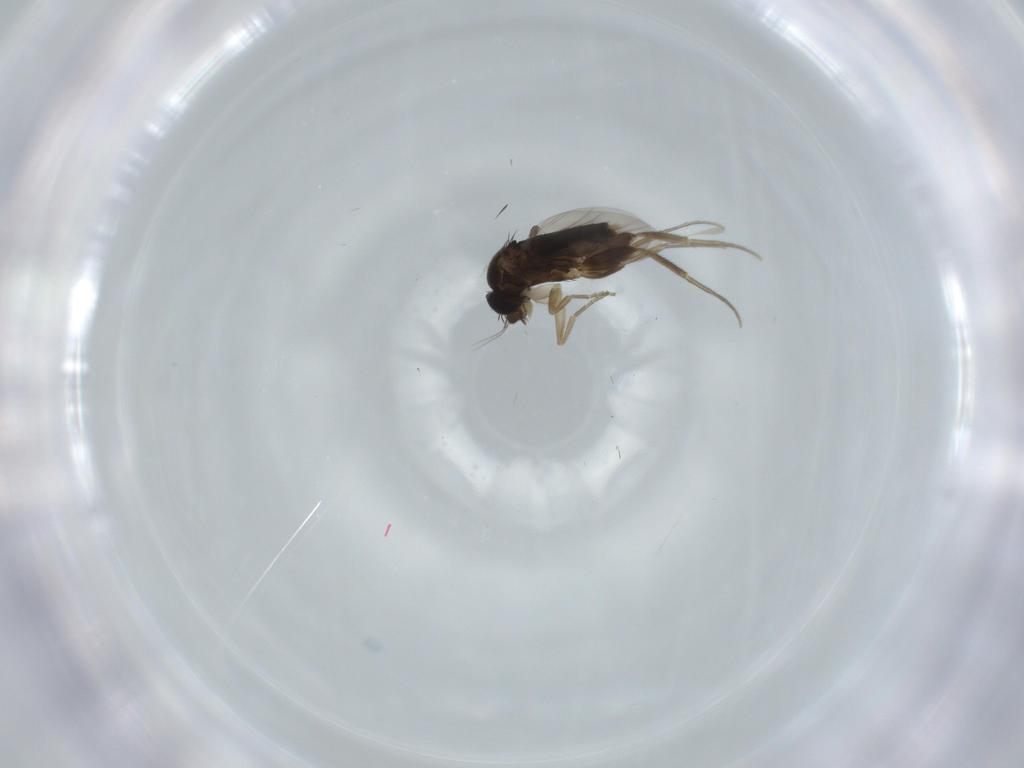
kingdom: Animalia
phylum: Arthropoda
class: Insecta
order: Diptera
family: Phoridae
